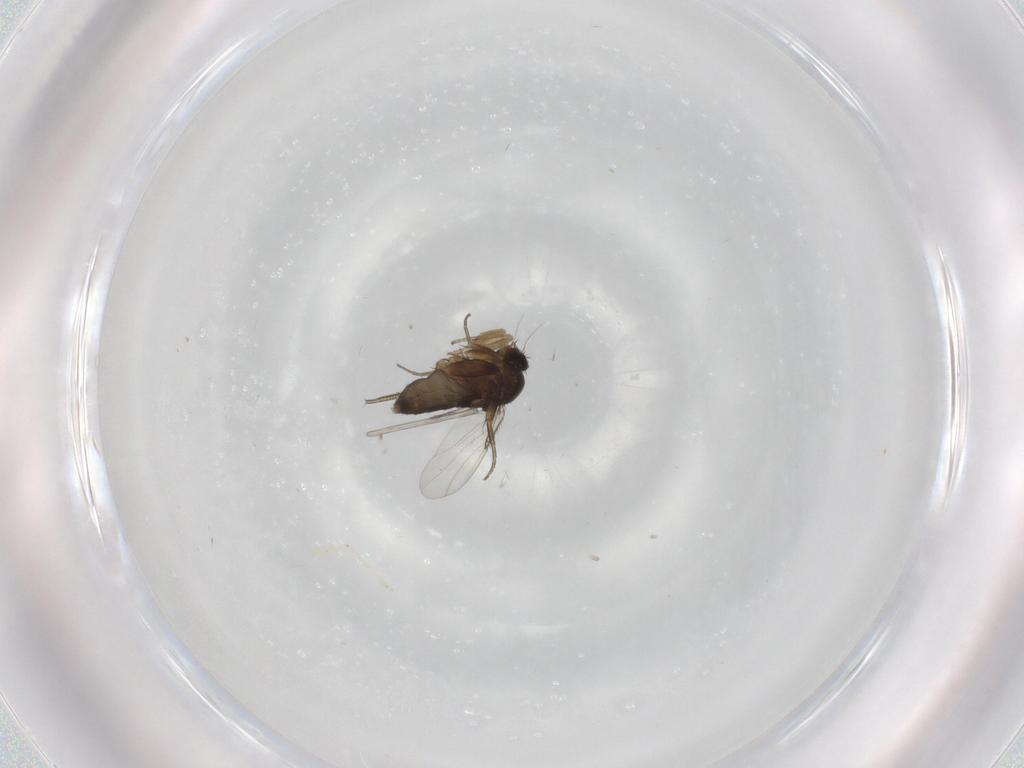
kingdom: Animalia
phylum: Arthropoda
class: Insecta
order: Diptera
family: Phoridae
